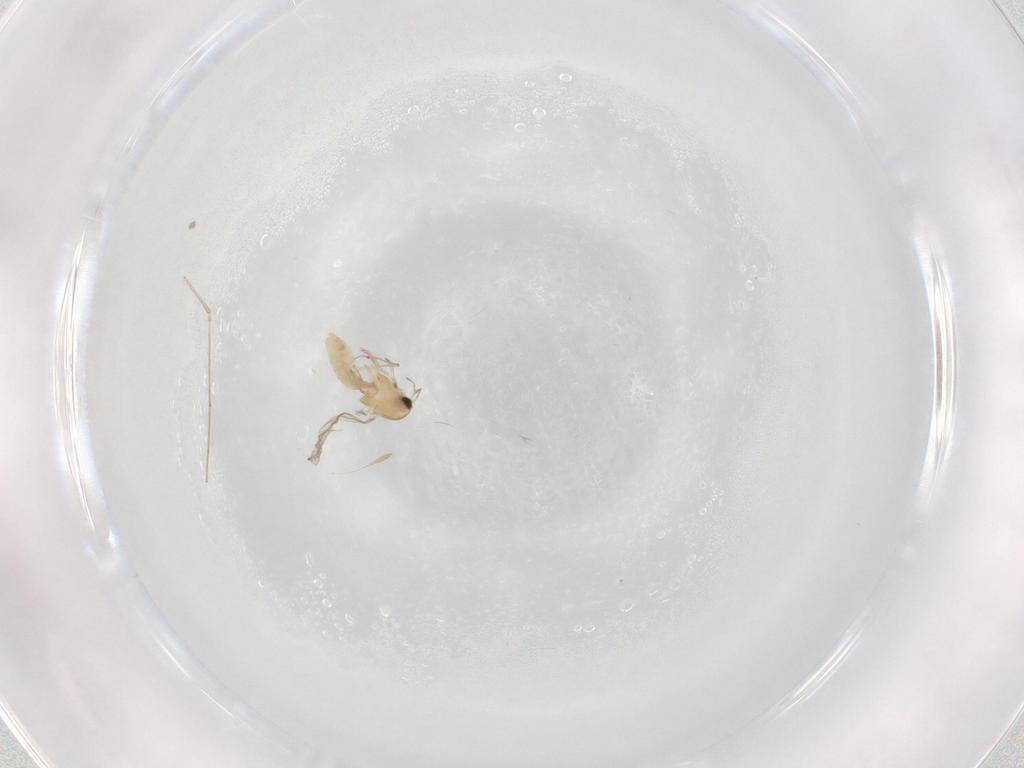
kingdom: Animalia
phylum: Arthropoda
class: Insecta
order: Diptera
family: Chironomidae
